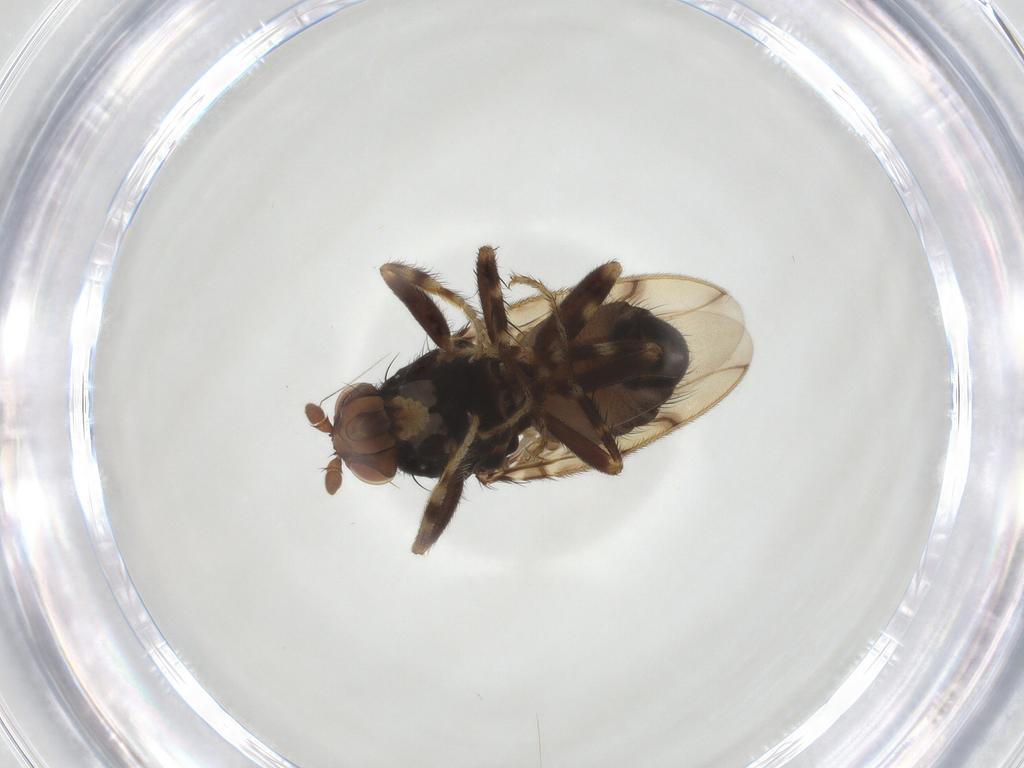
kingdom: Animalia
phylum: Arthropoda
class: Insecta
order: Diptera
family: Sphaeroceridae
